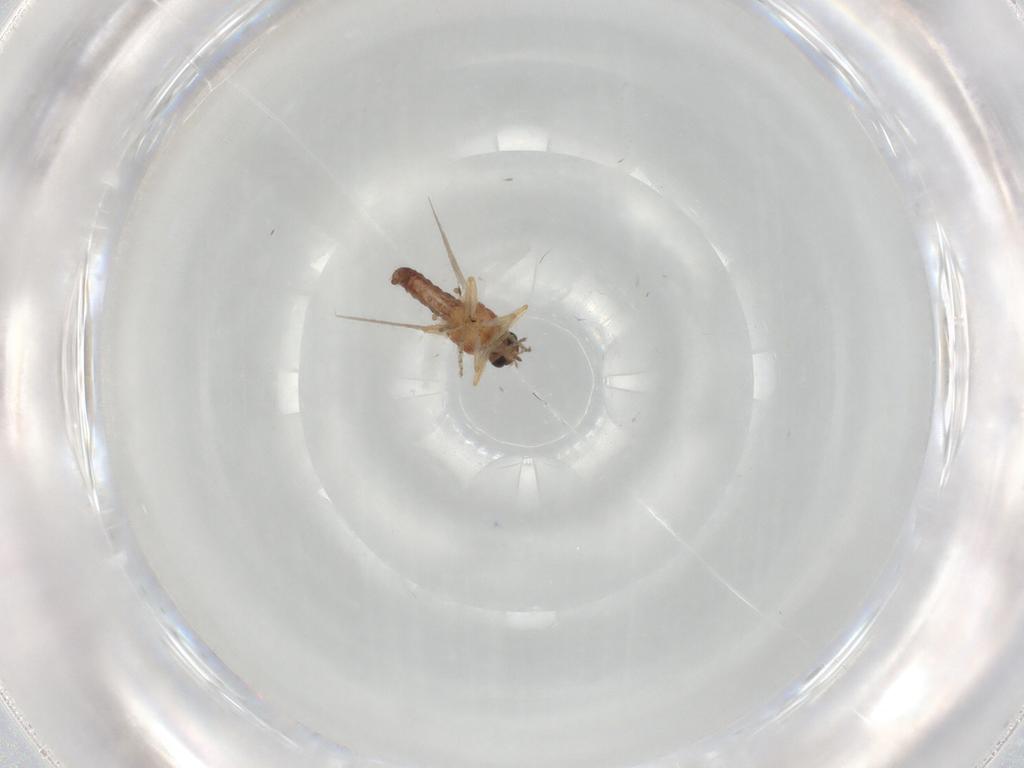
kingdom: Animalia
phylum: Arthropoda
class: Insecta
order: Diptera
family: Ceratopogonidae
